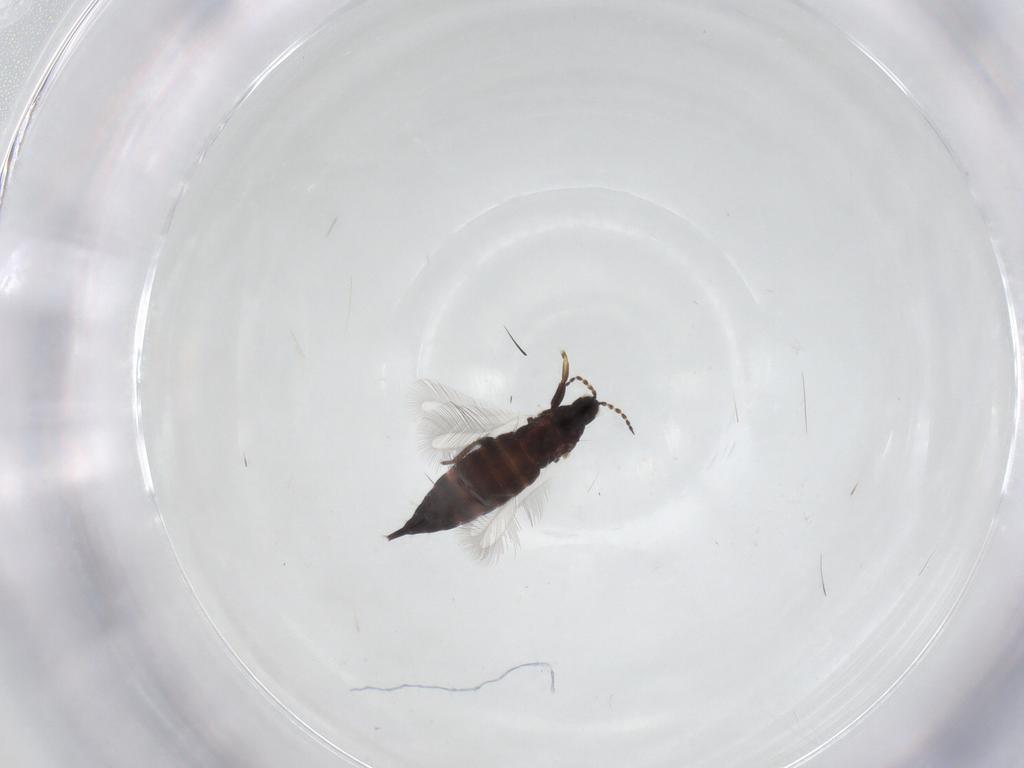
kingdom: Animalia
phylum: Arthropoda
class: Insecta
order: Thysanoptera
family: Phlaeothripidae
